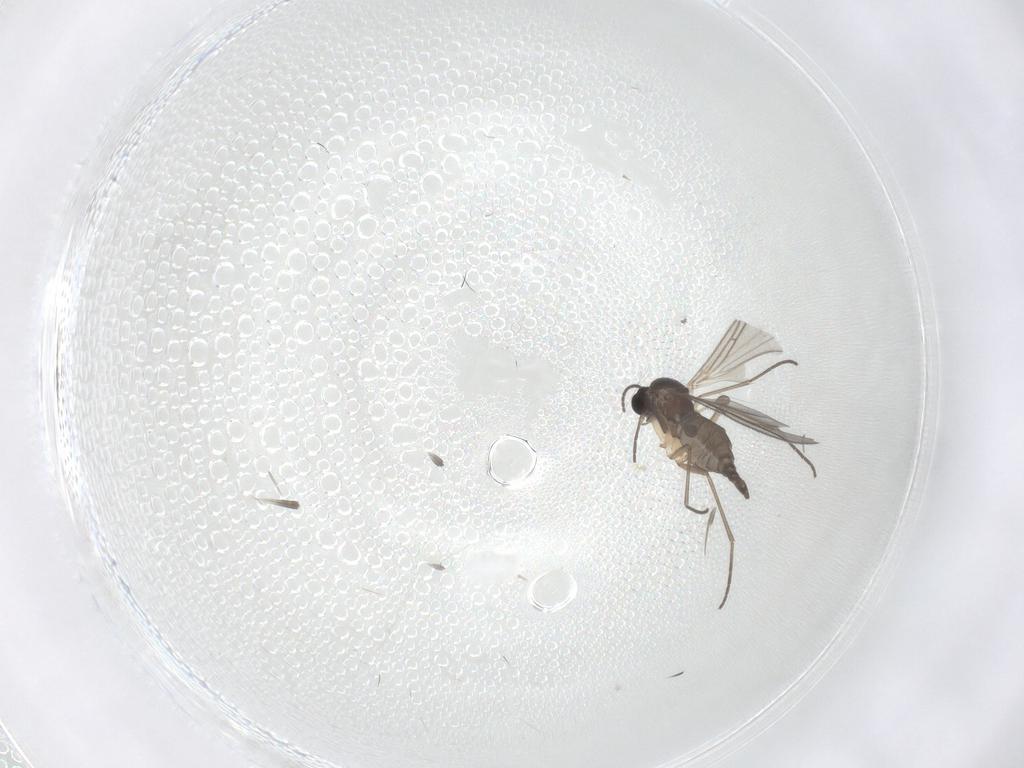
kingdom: Animalia
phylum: Arthropoda
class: Insecta
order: Diptera
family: Sciaridae
